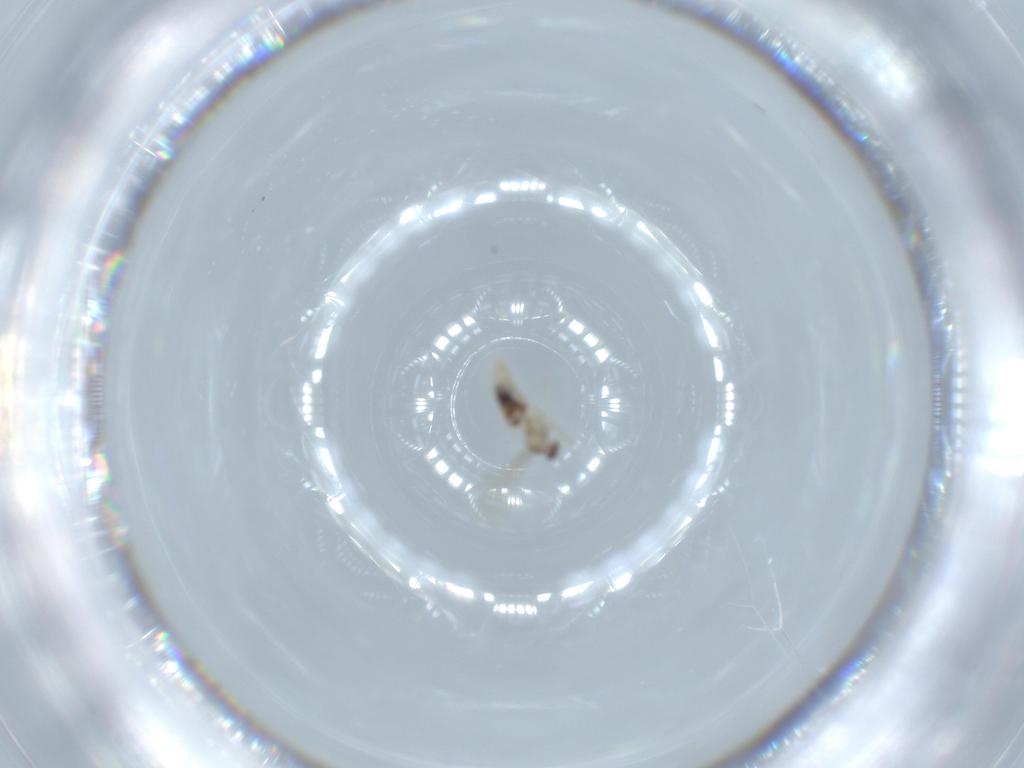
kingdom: Animalia
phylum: Arthropoda
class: Insecta
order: Diptera
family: Cecidomyiidae
